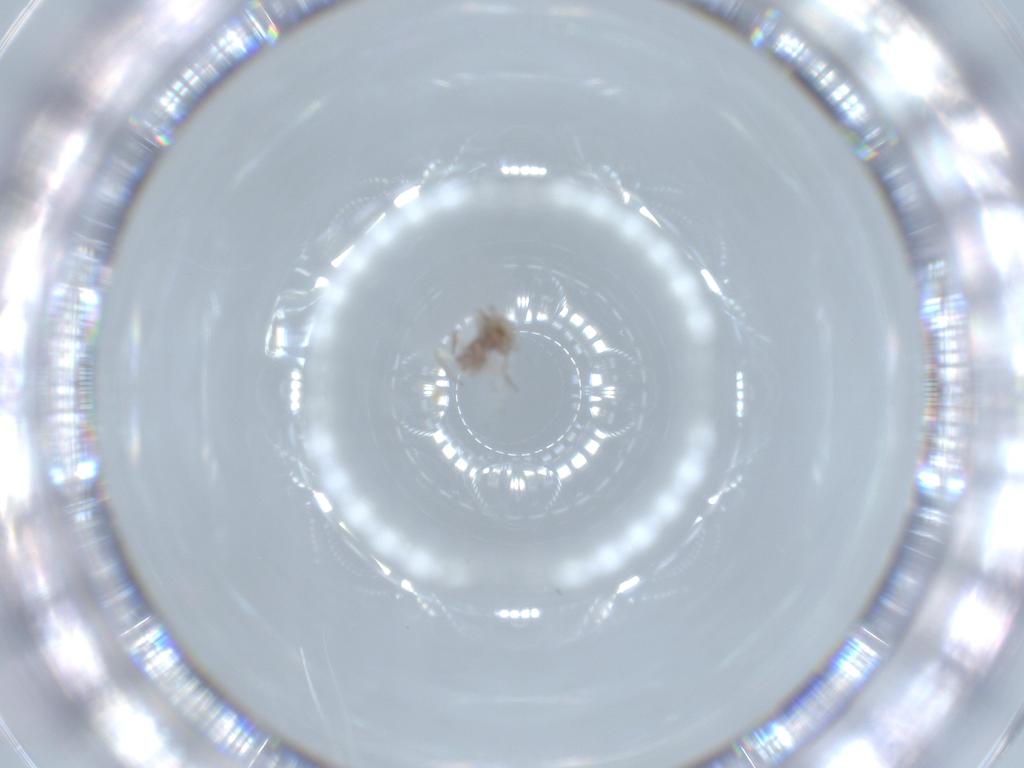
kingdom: Animalia
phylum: Arthropoda
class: Insecta
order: Psocodea
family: Caeciliusidae
